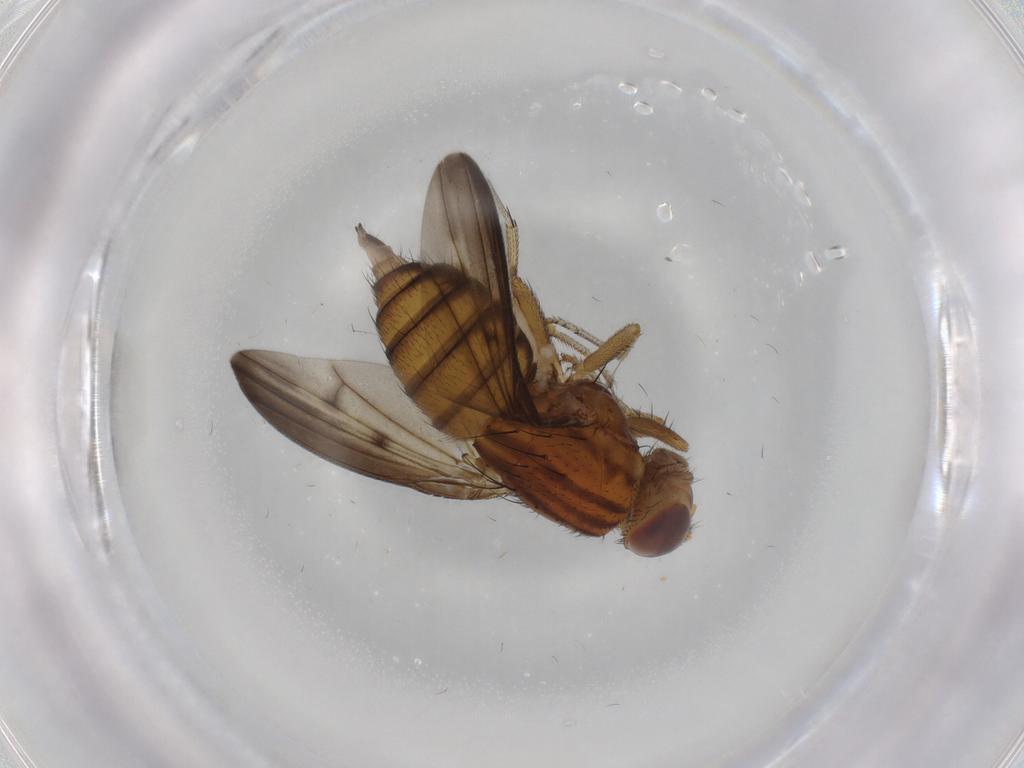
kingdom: Animalia
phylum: Arthropoda
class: Insecta
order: Diptera
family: Lauxaniidae
